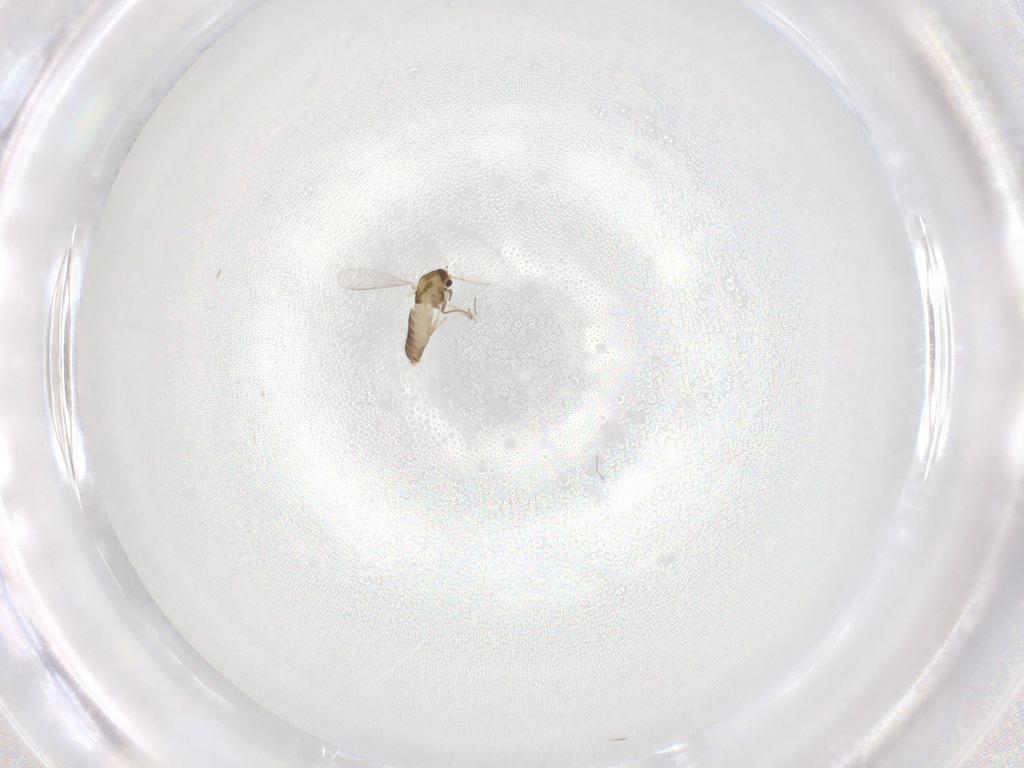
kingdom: Animalia
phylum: Arthropoda
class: Insecta
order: Diptera
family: Chironomidae
